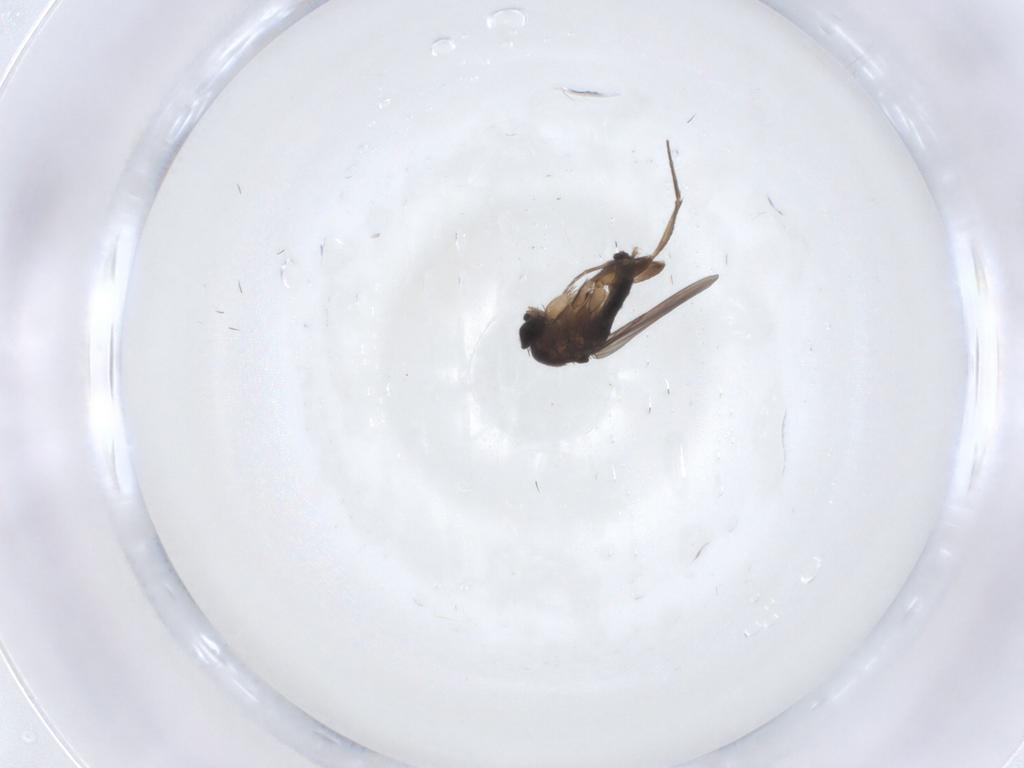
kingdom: Animalia
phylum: Arthropoda
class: Insecta
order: Diptera
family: Phoridae
